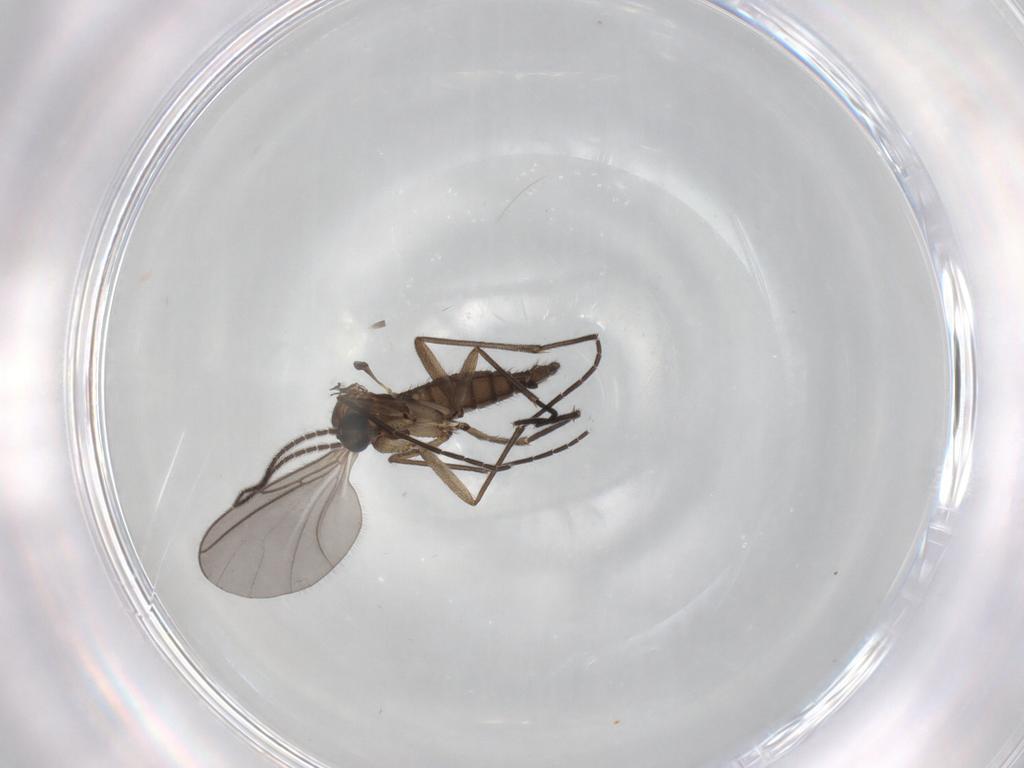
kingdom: Animalia
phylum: Arthropoda
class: Insecta
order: Diptera
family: Sciaridae
